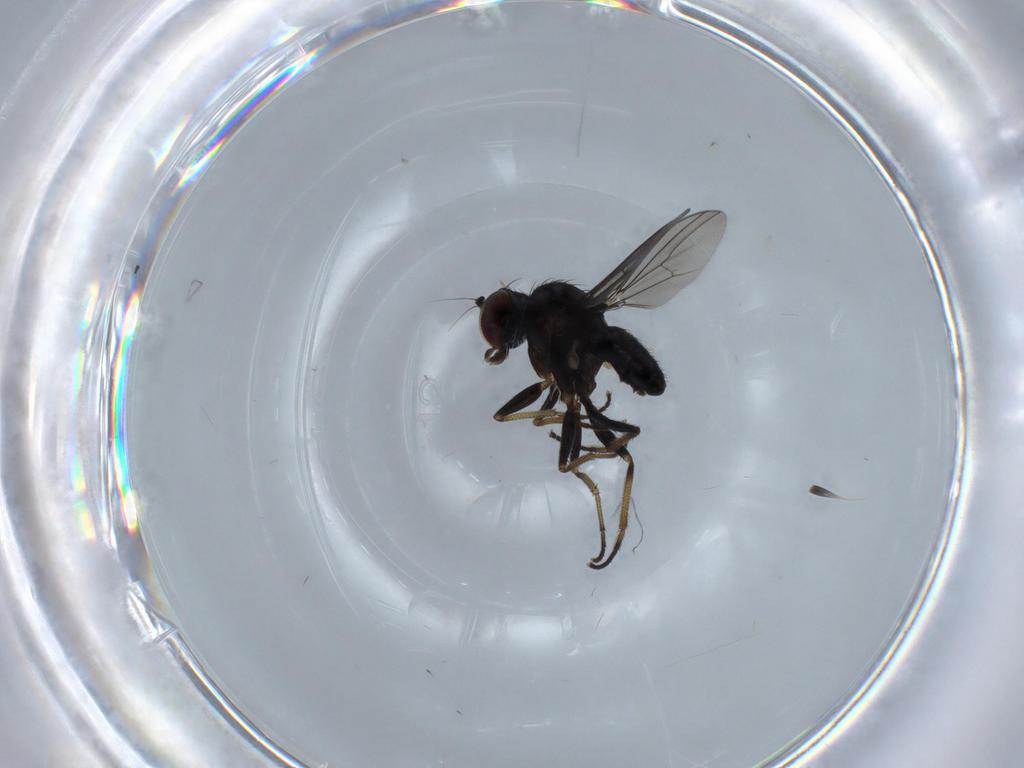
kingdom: Animalia
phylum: Arthropoda
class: Insecta
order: Diptera
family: Dolichopodidae
